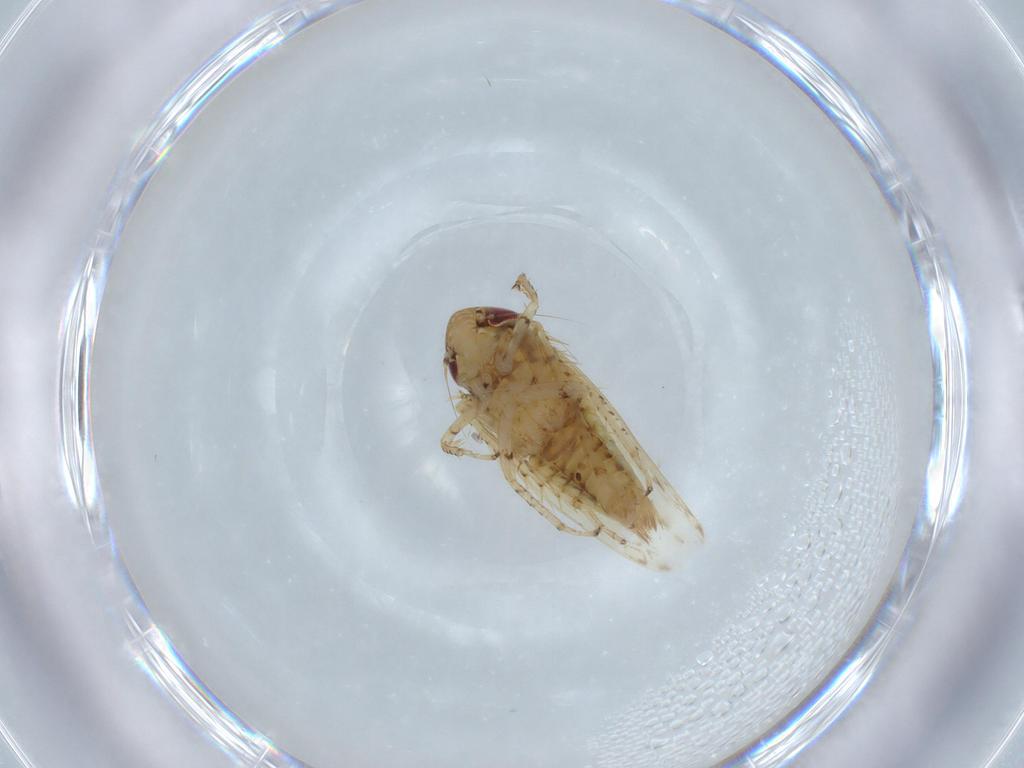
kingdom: Animalia
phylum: Arthropoda
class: Insecta
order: Hemiptera
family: Cicadellidae
